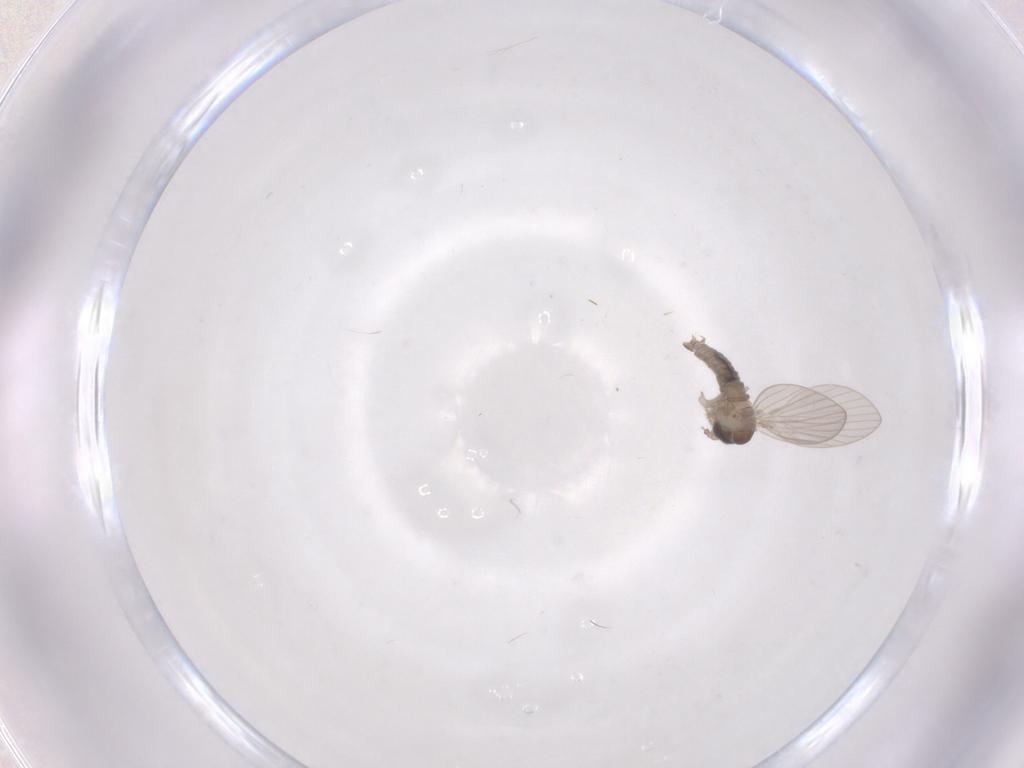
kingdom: Animalia
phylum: Arthropoda
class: Insecta
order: Diptera
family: Psychodidae
